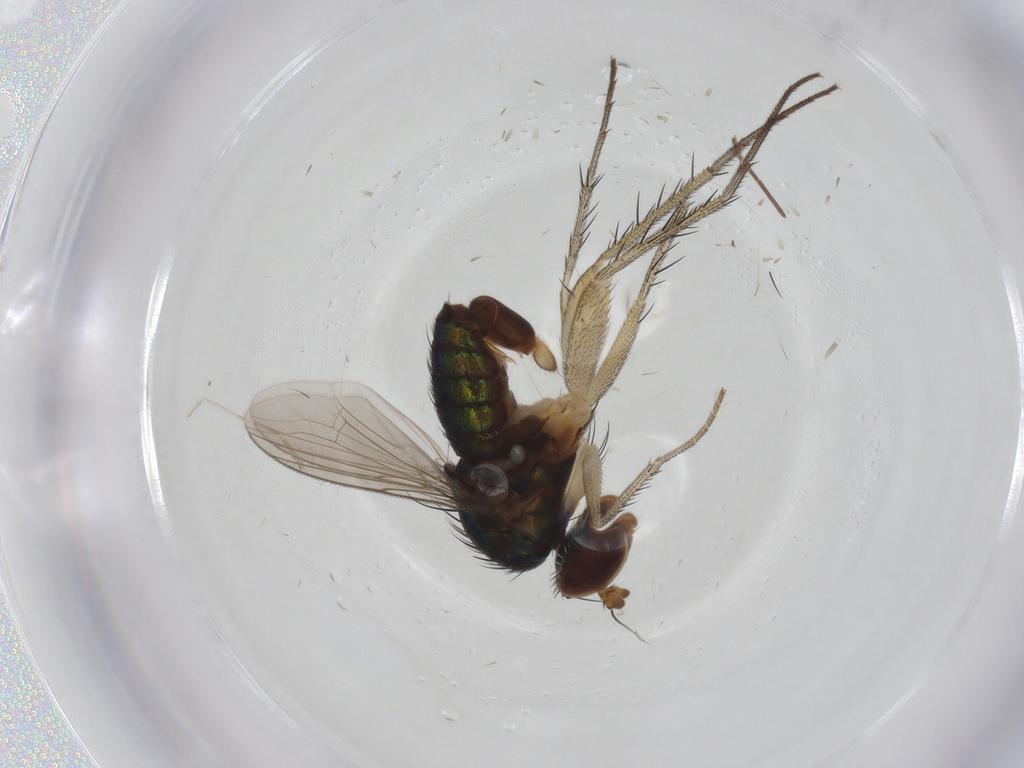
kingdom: Animalia
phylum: Arthropoda
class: Insecta
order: Diptera
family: Dolichopodidae
